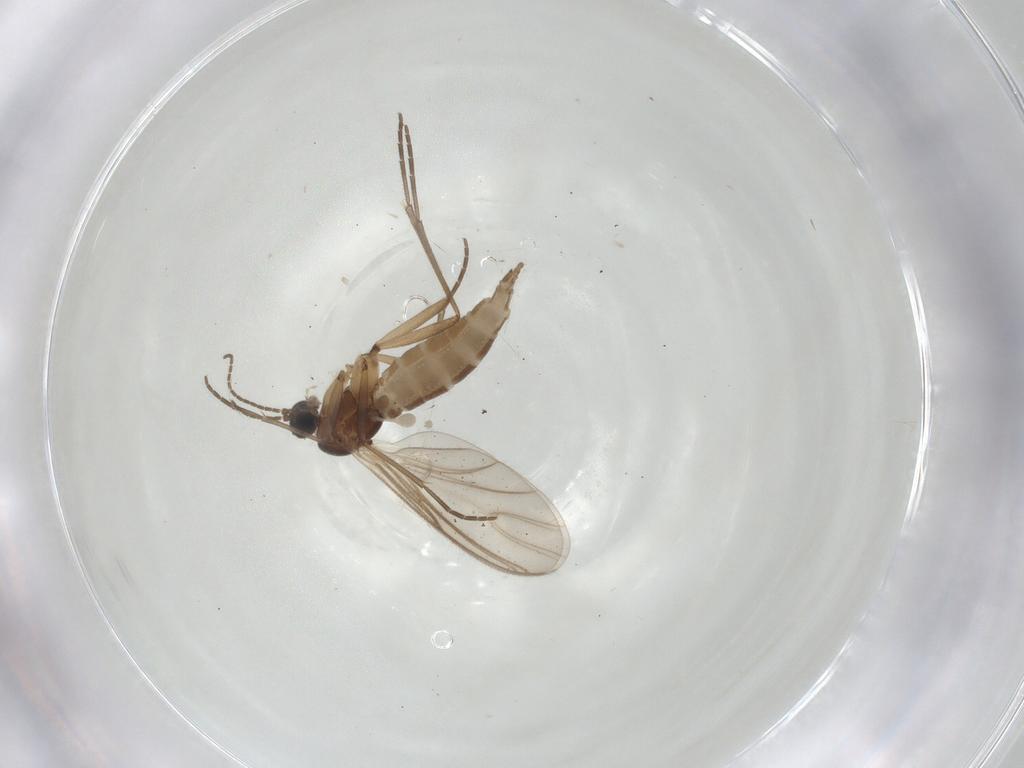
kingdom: Animalia
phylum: Arthropoda
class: Insecta
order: Diptera
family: Sciaridae
